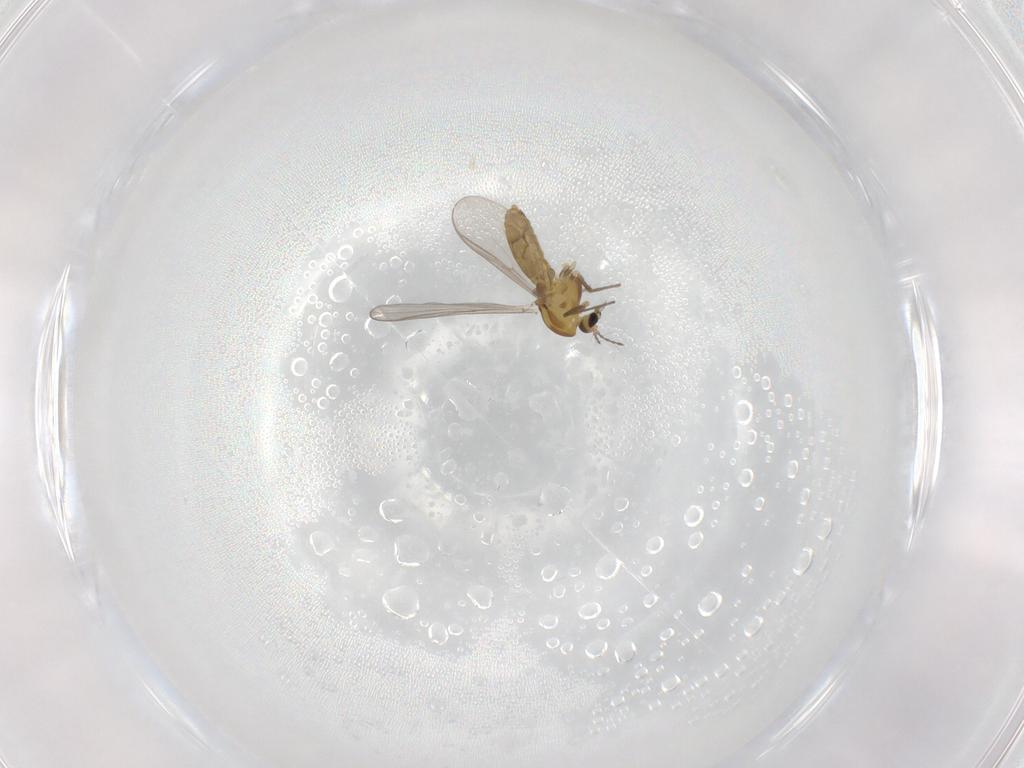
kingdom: Animalia
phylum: Arthropoda
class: Insecta
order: Diptera
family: Chironomidae
